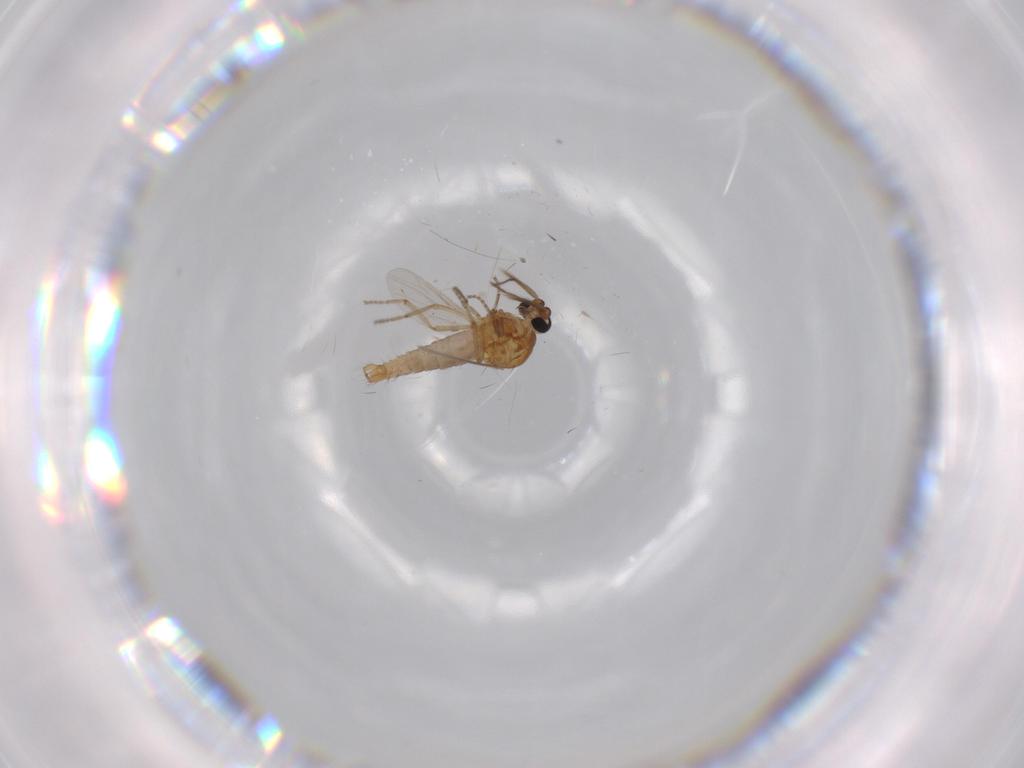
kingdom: Animalia
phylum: Arthropoda
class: Insecta
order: Diptera
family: Ceratopogonidae
